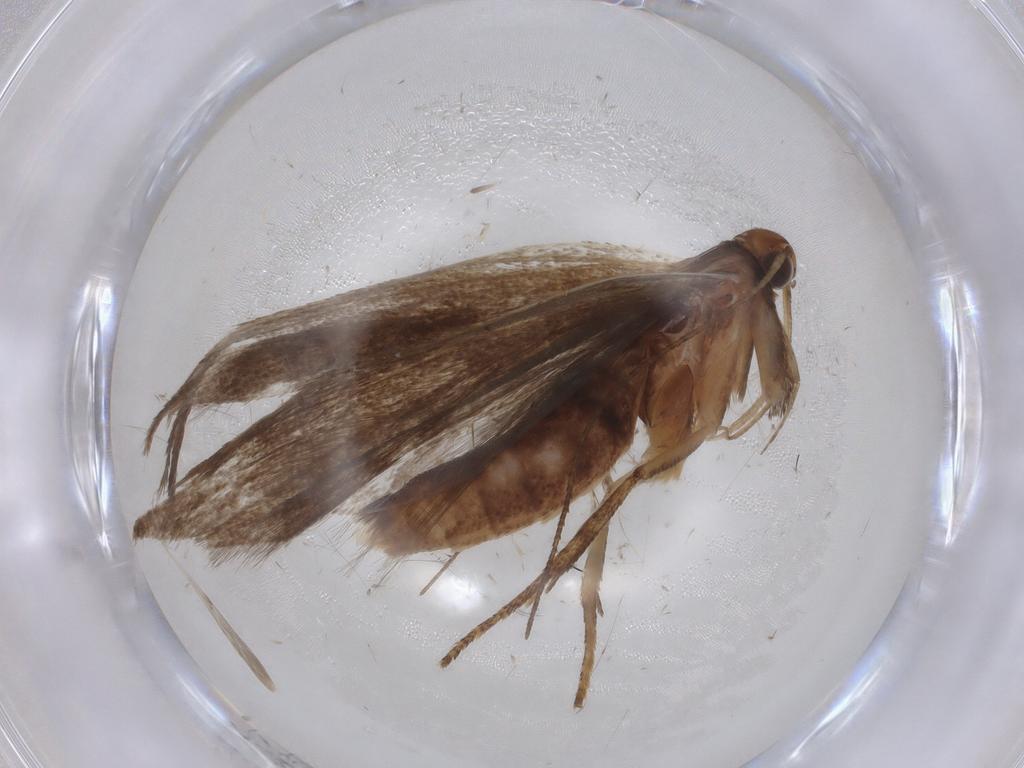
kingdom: Animalia
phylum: Arthropoda
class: Insecta
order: Lepidoptera
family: Gelechiidae
